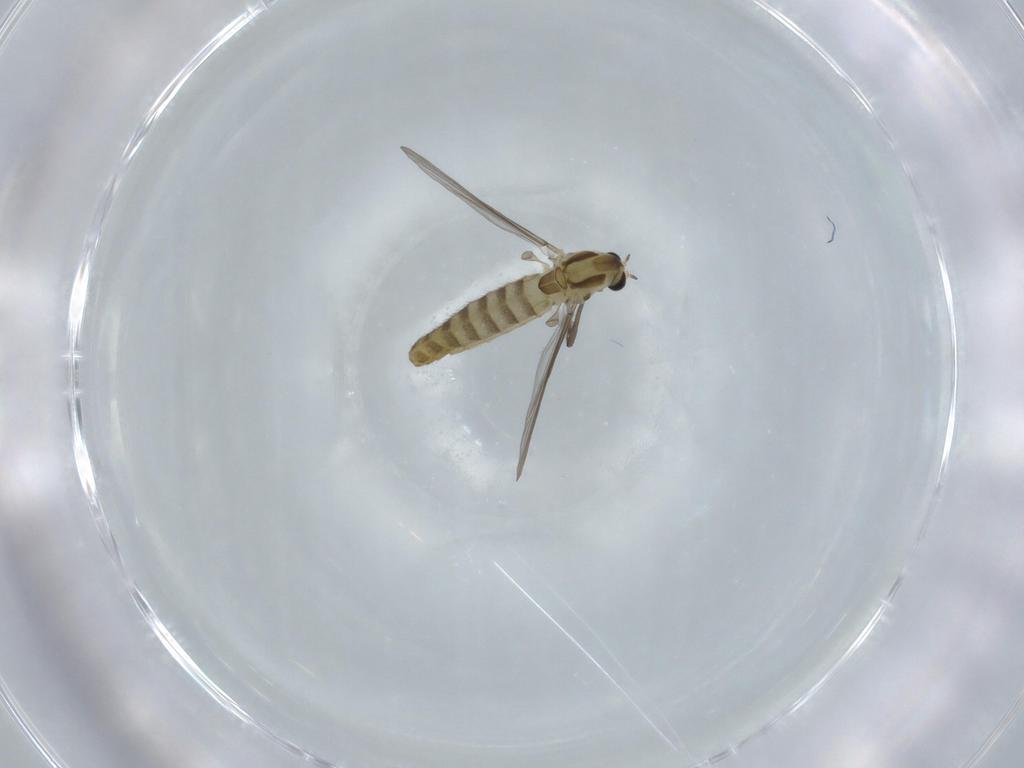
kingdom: Animalia
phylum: Arthropoda
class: Insecta
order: Diptera
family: Chironomidae
